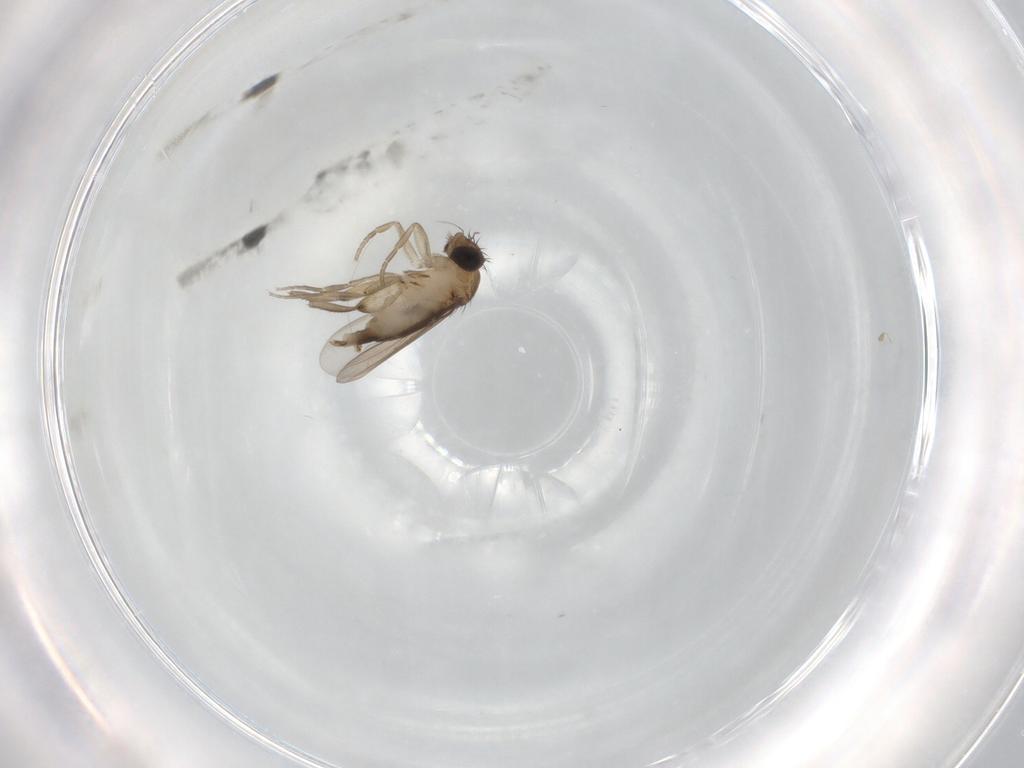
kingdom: Animalia
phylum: Arthropoda
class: Insecta
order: Diptera
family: Phoridae
